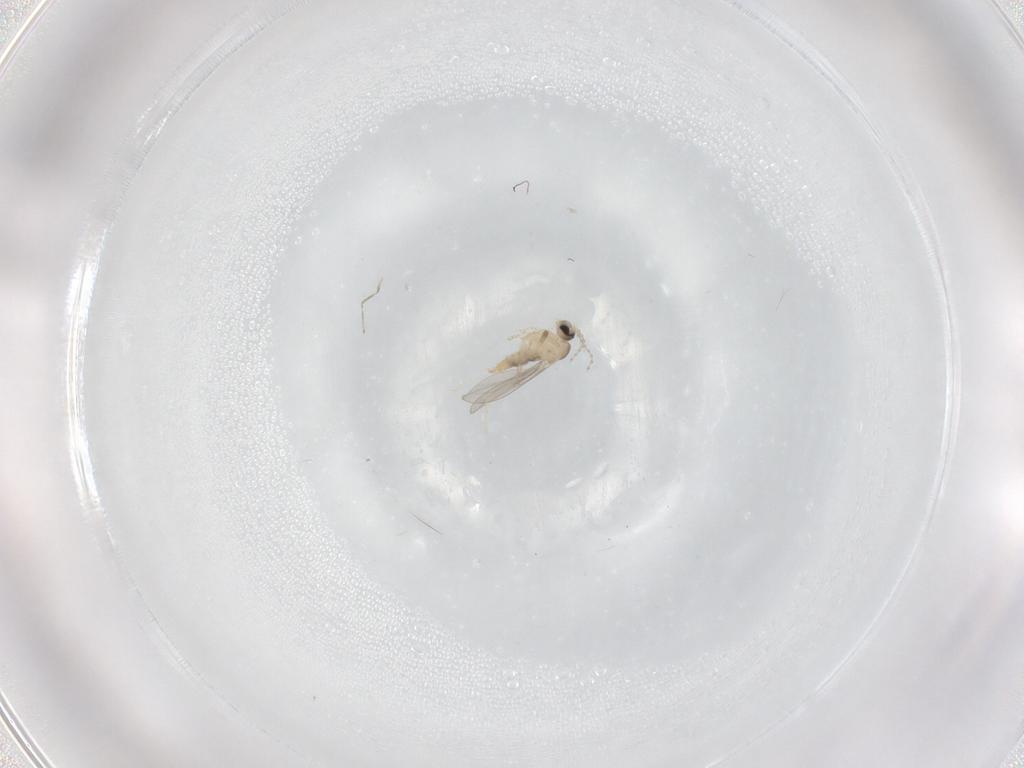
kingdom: Animalia
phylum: Arthropoda
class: Insecta
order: Diptera
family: Cecidomyiidae
